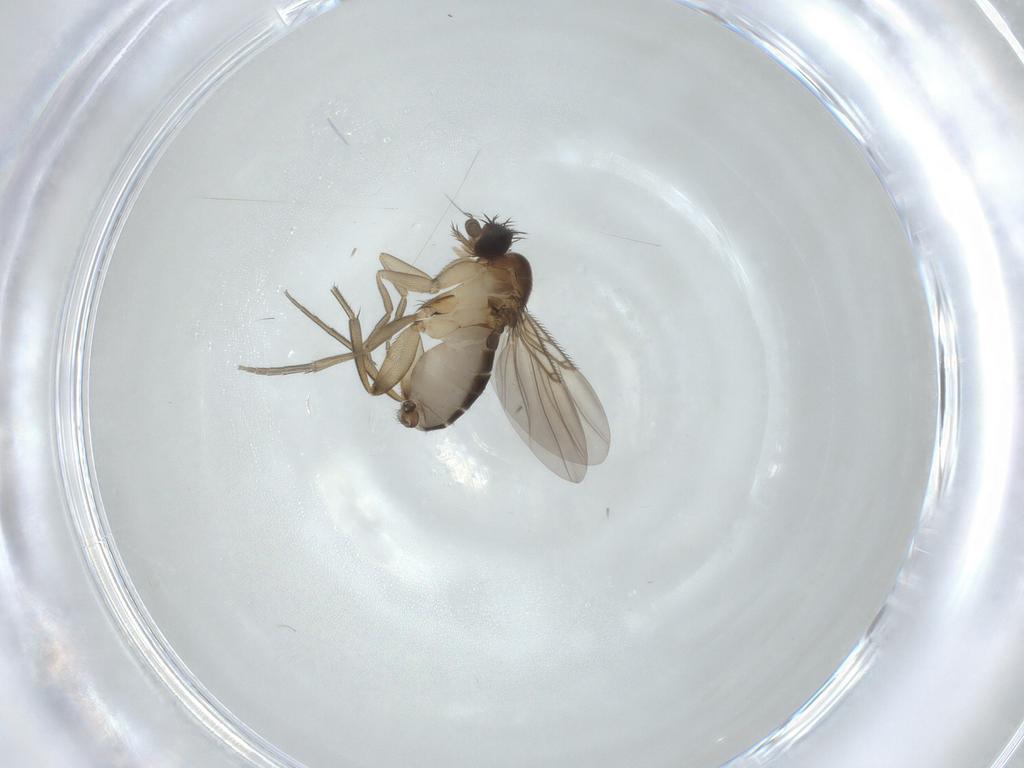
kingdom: Animalia
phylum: Arthropoda
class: Insecta
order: Diptera
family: Phoridae
